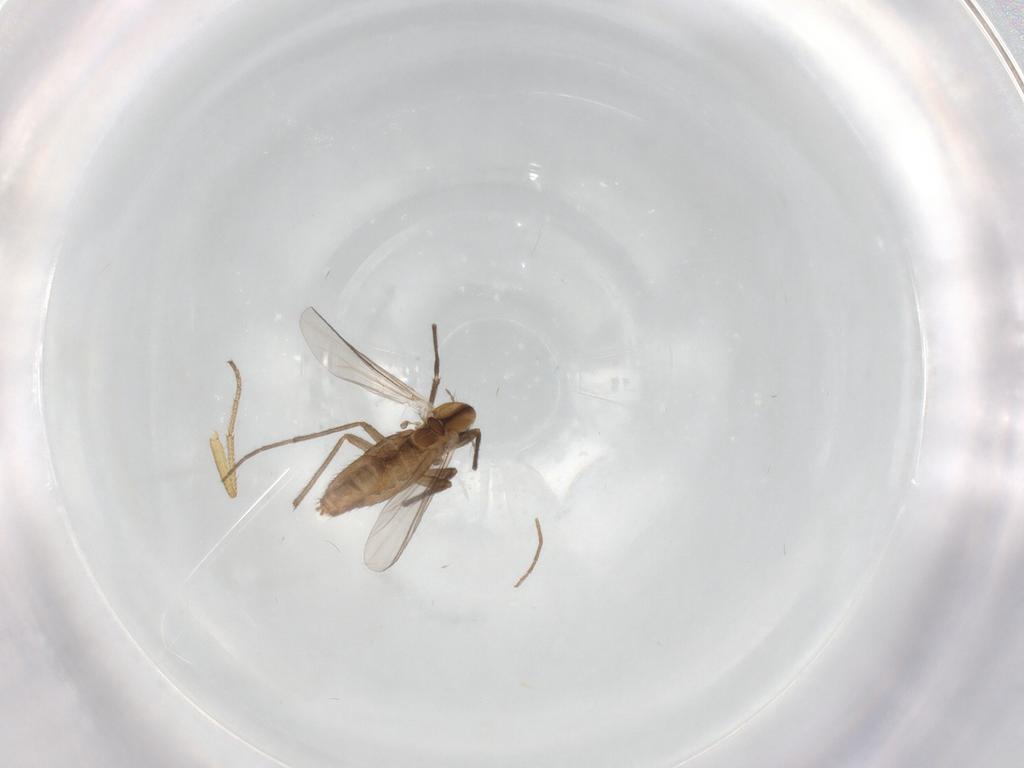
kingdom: Animalia
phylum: Arthropoda
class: Insecta
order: Diptera
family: Chironomidae
